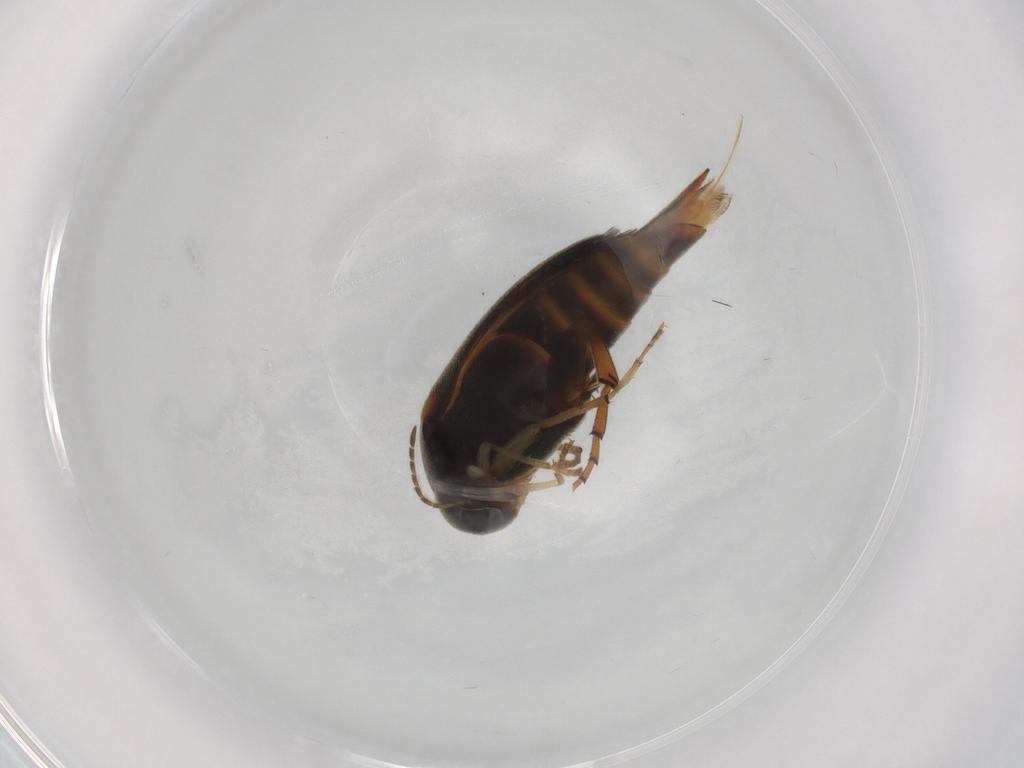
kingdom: Animalia
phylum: Arthropoda
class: Insecta
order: Coleoptera
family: Mordellidae
